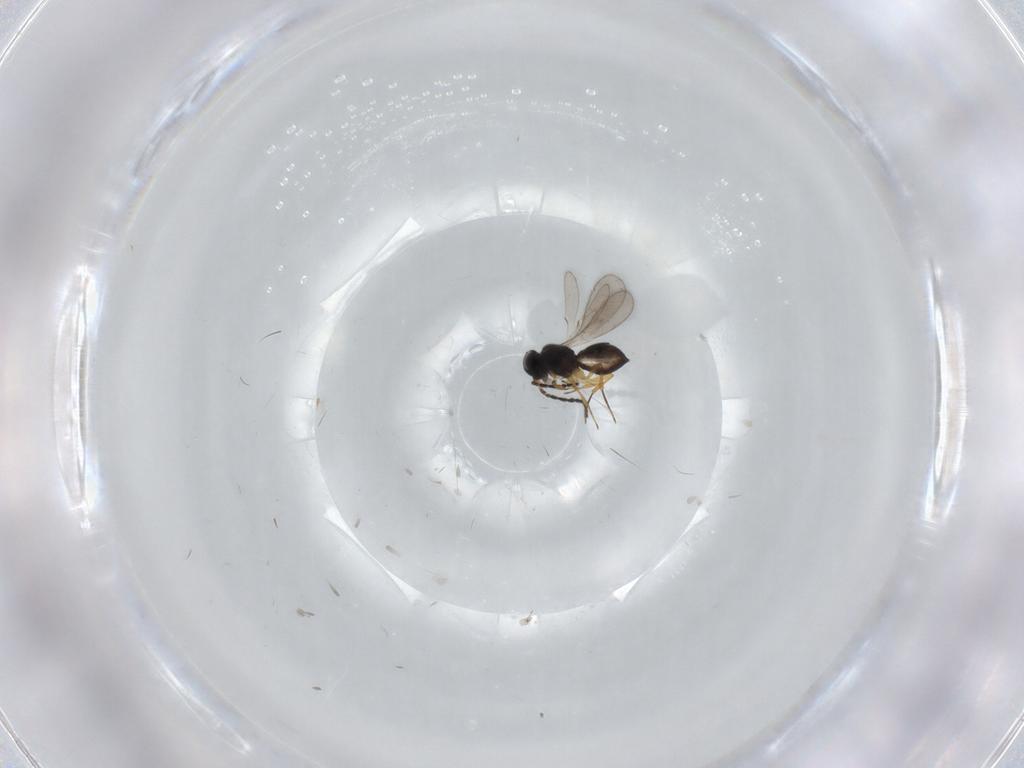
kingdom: Animalia
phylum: Arthropoda
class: Insecta
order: Hymenoptera
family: Scelionidae
